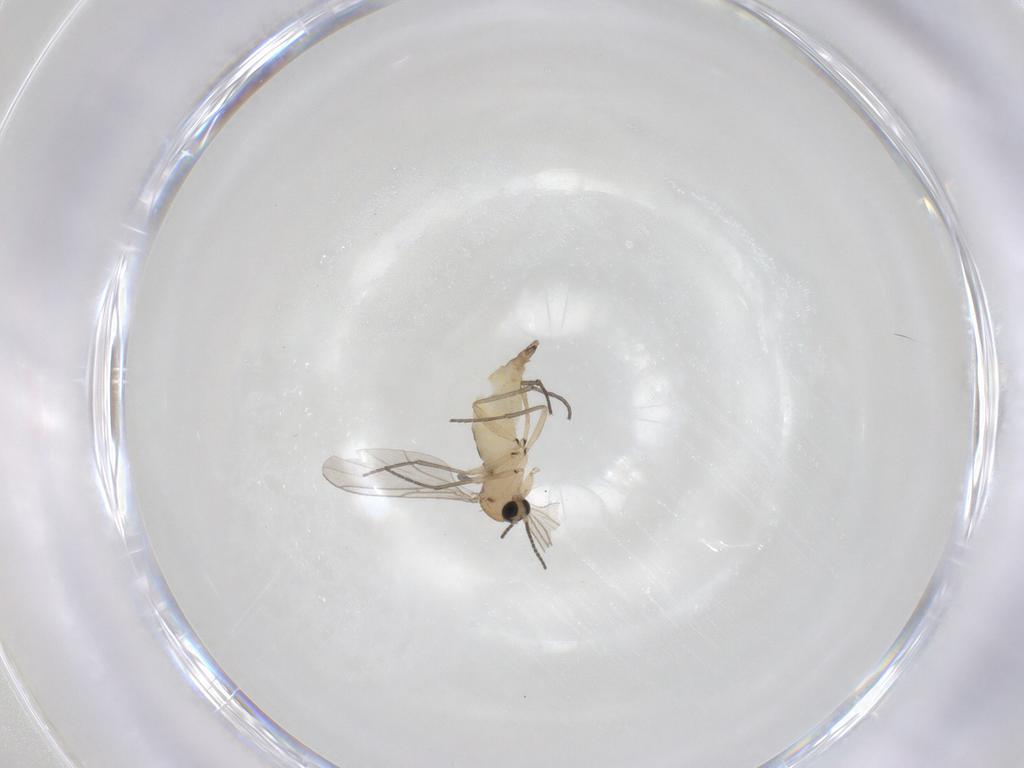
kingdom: Animalia
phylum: Arthropoda
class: Insecta
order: Diptera
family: Sciaridae
